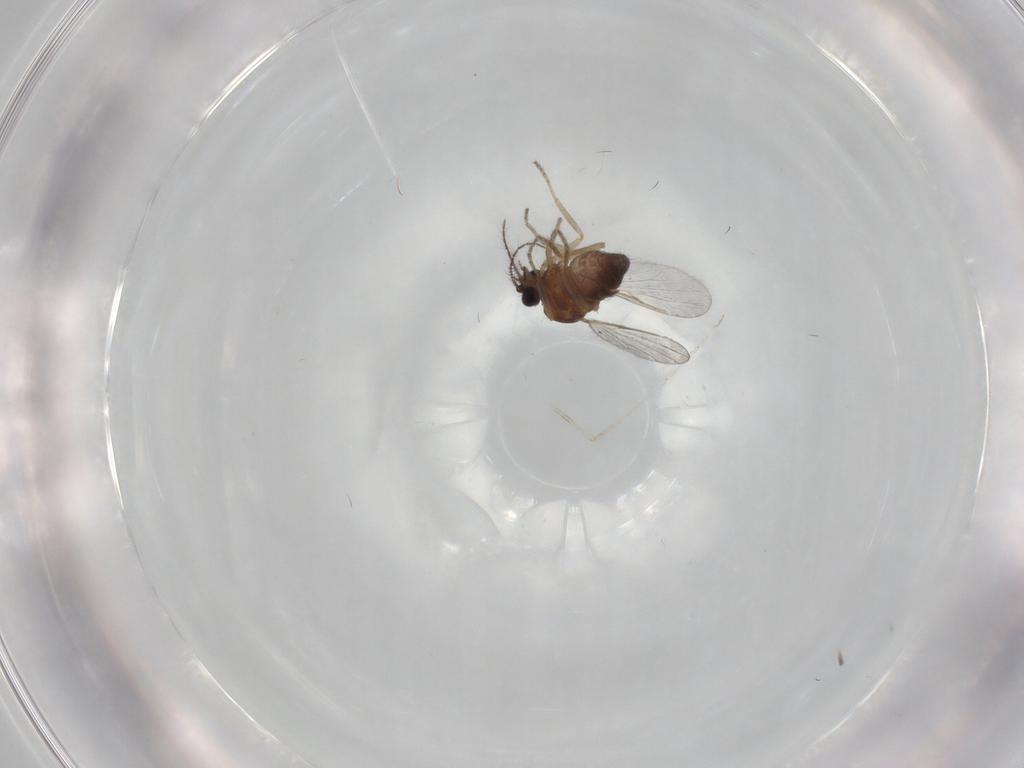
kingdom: Animalia
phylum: Arthropoda
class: Insecta
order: Diptera
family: Ceratopogonidae
